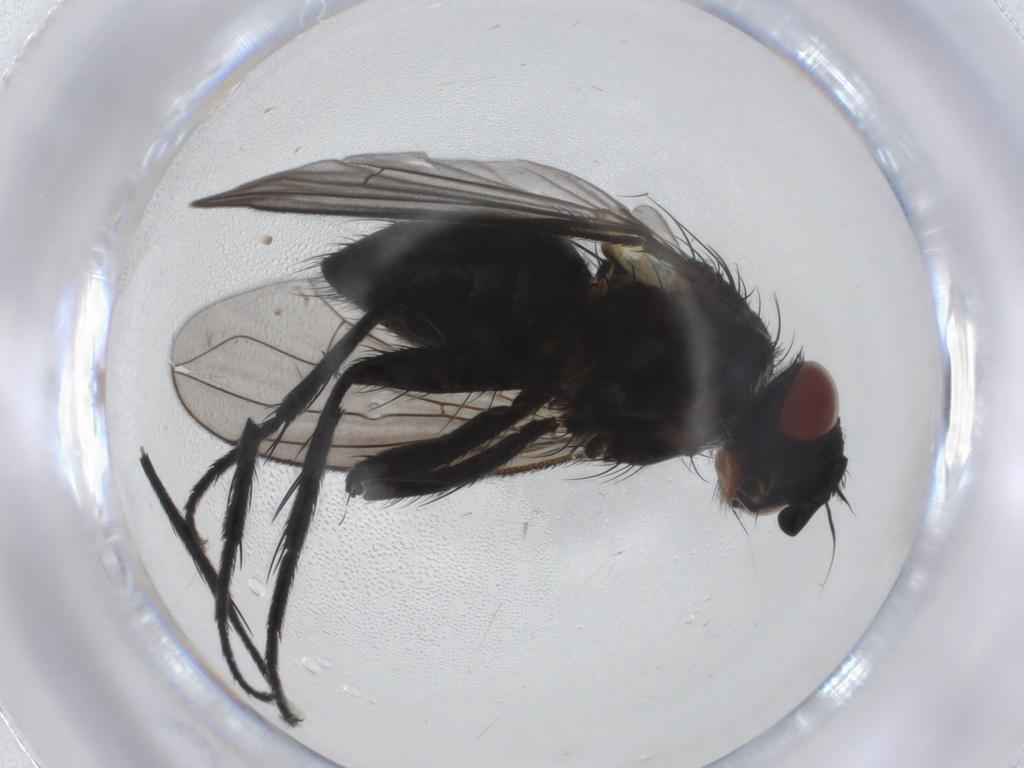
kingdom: Animalia
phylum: Arthropoda
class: Insecta
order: Diptera
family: Tachinidae
